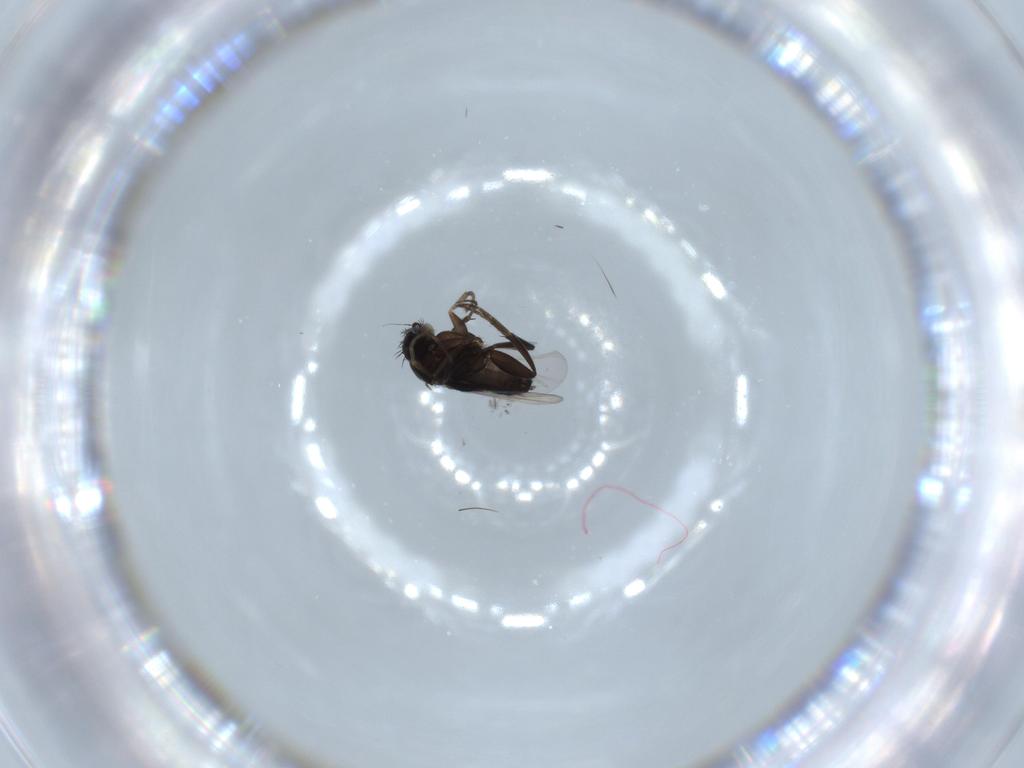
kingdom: Animalia
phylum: Arthropoda
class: Insecta
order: Diptera
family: Phoridae
